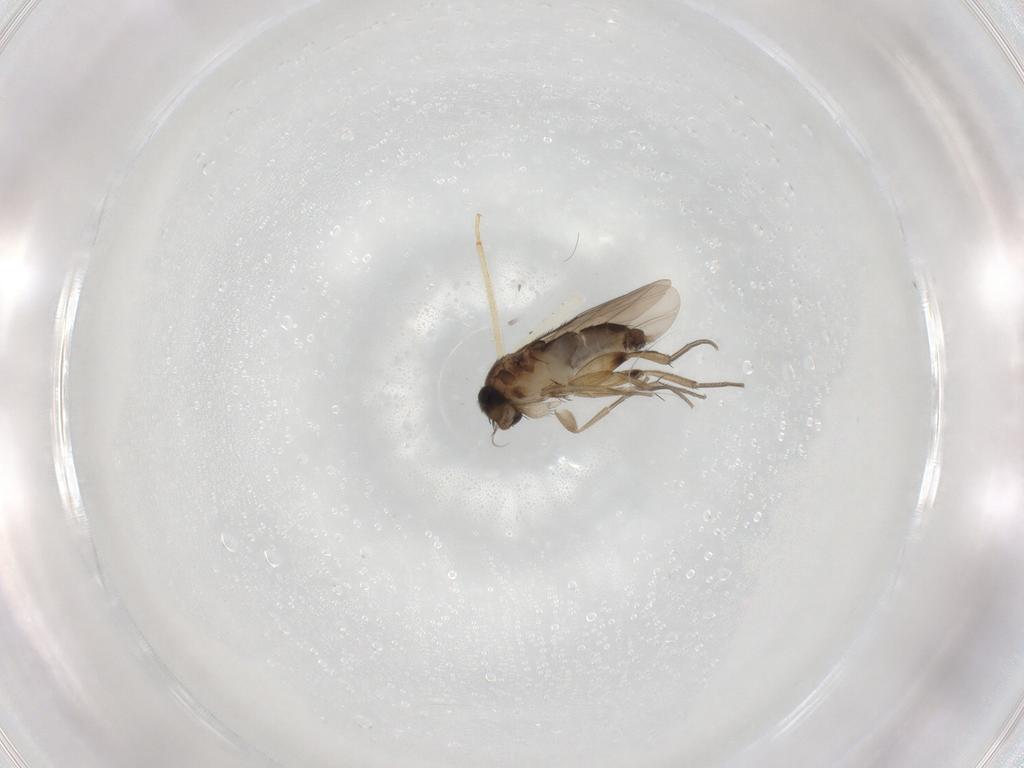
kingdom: Animalia
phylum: Arthropoda
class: Insecta
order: Diptera
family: Phoridae
